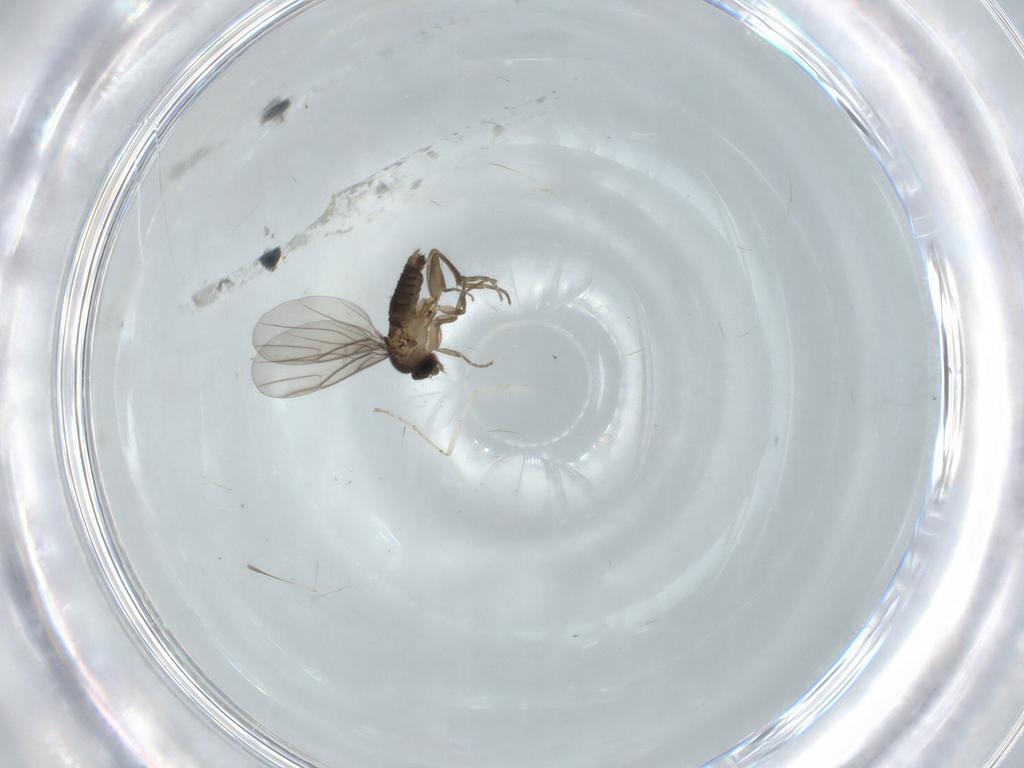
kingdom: Animalia
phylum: Arthropoda
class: Insecta
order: Diptera
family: Cecidomyiidae
